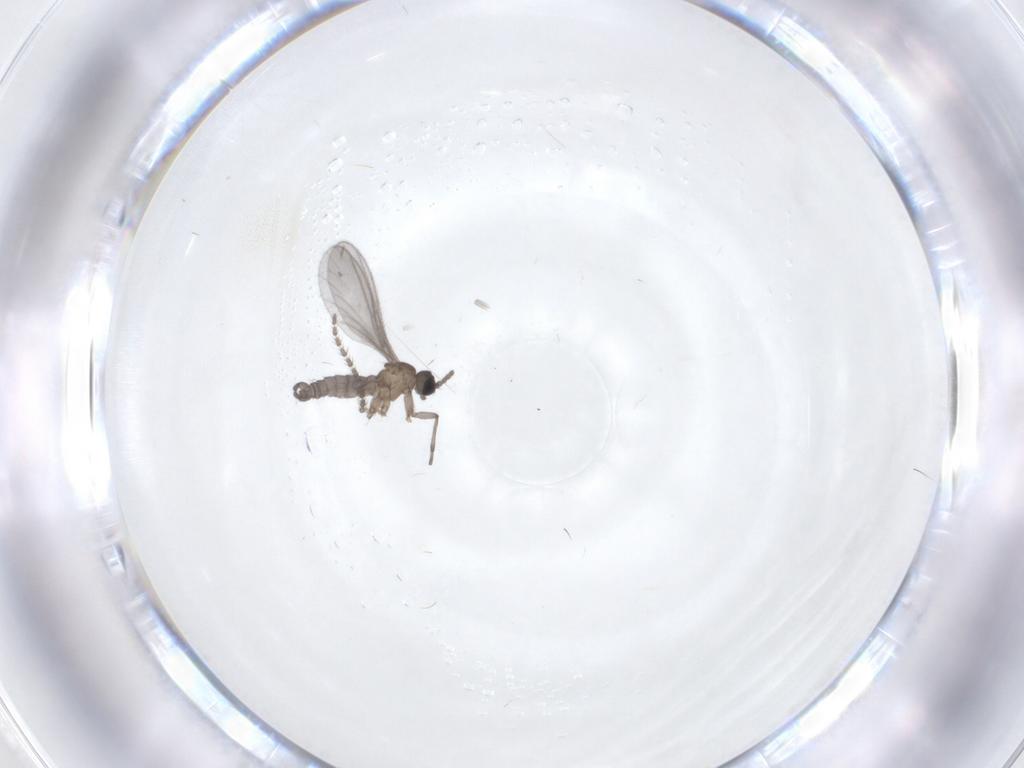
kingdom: Animalia
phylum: Arthropoda
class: Insecta
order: Diptera
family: Sciaridae
